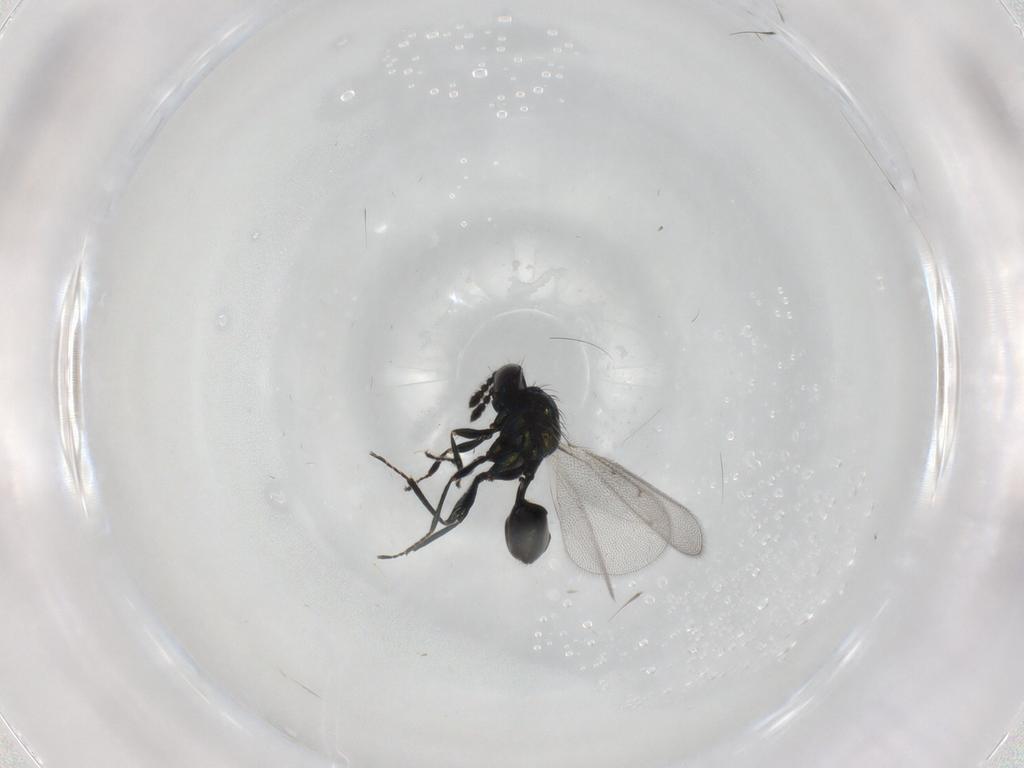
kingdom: Animalia
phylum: Arthropoda
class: Insecta
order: Hymenoptera
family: Eulophidae
